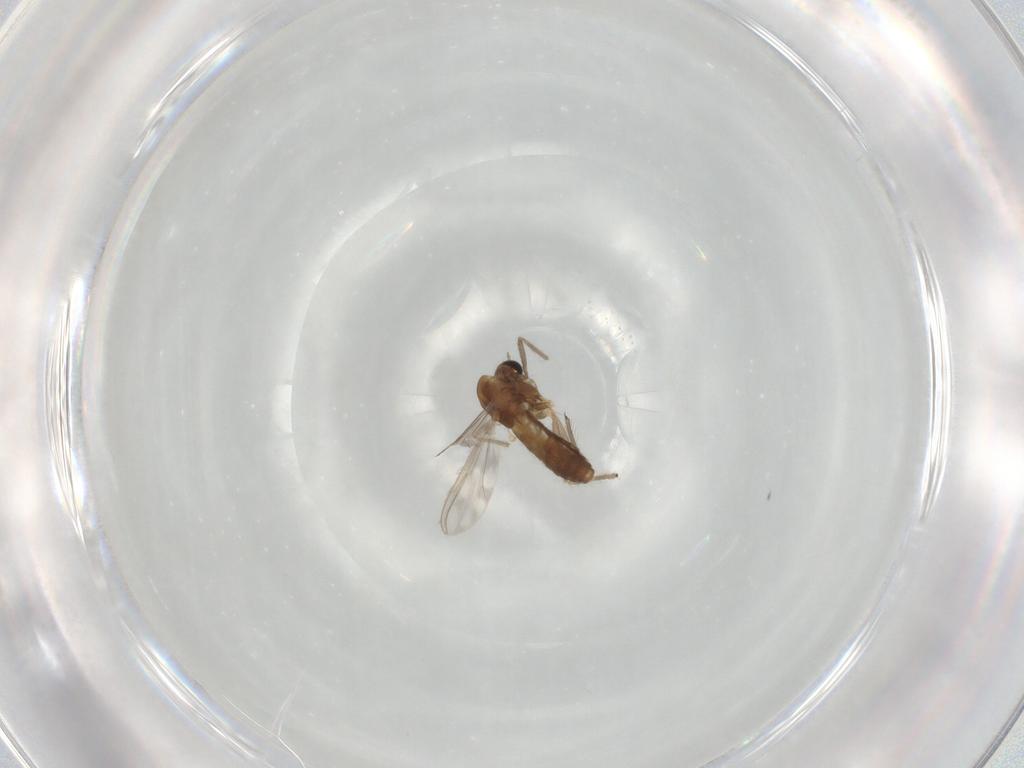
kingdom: Animalia
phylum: Arthropoda
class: Insecta
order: Diptera
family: Chironomidae
